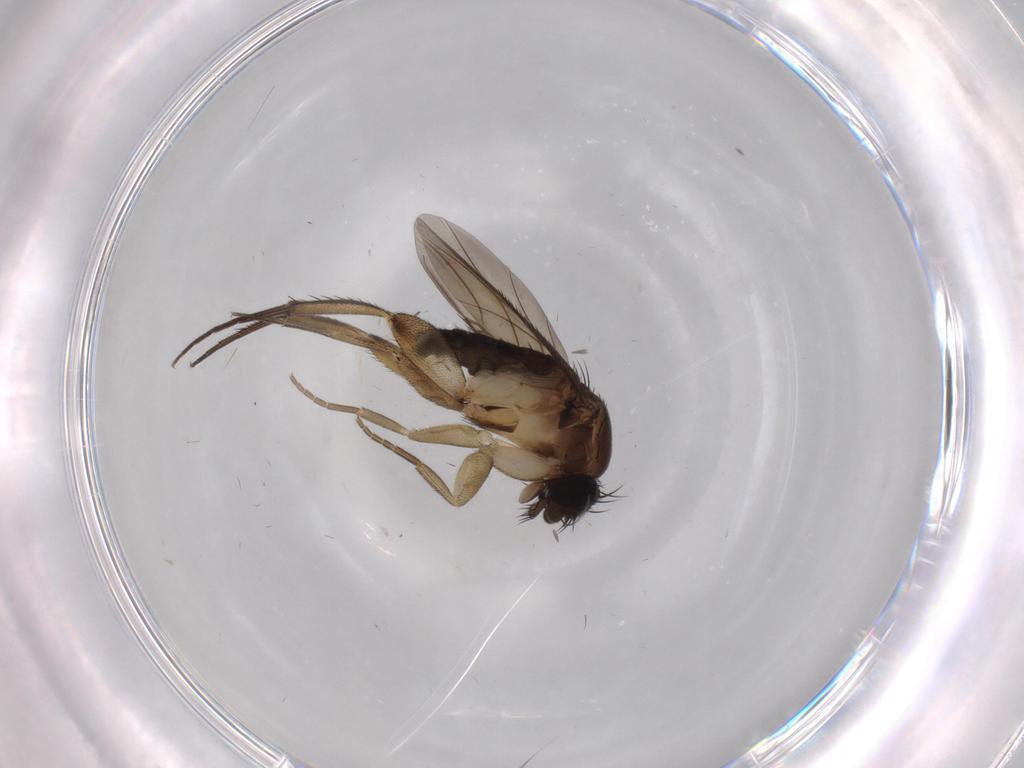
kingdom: Animalia
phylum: Arthropoda
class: Insecta
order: Diptera
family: Phoridae
